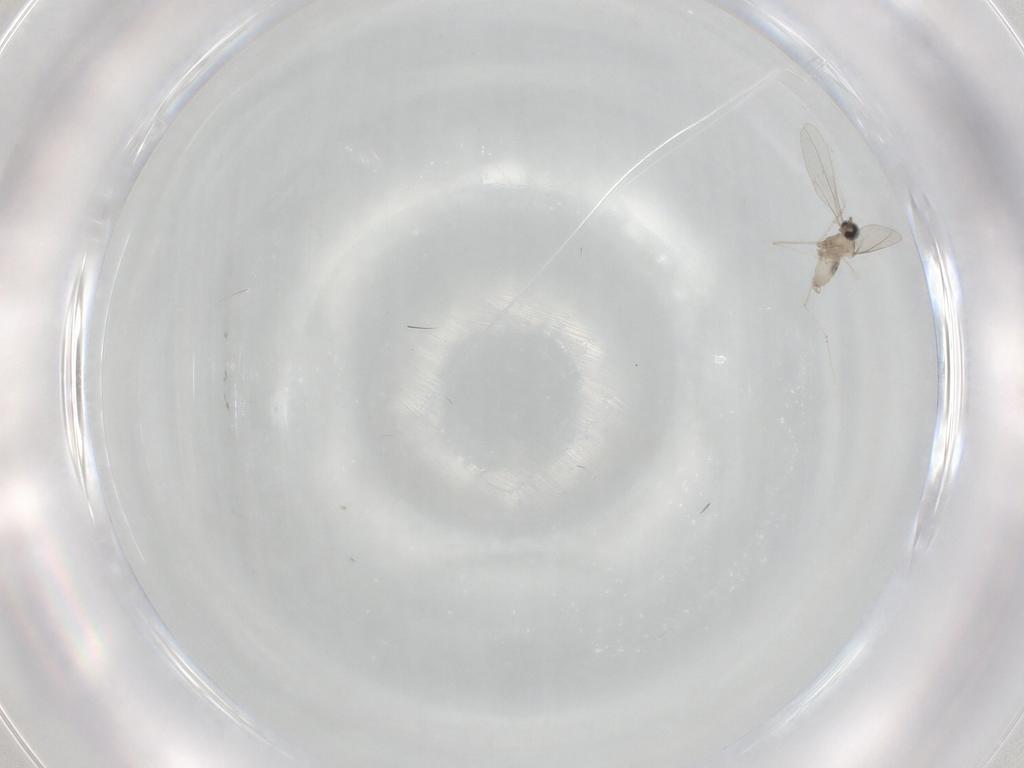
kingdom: Animalia
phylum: Arthropoda
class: Insecta
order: Diptera
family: Cecidomyiidae
